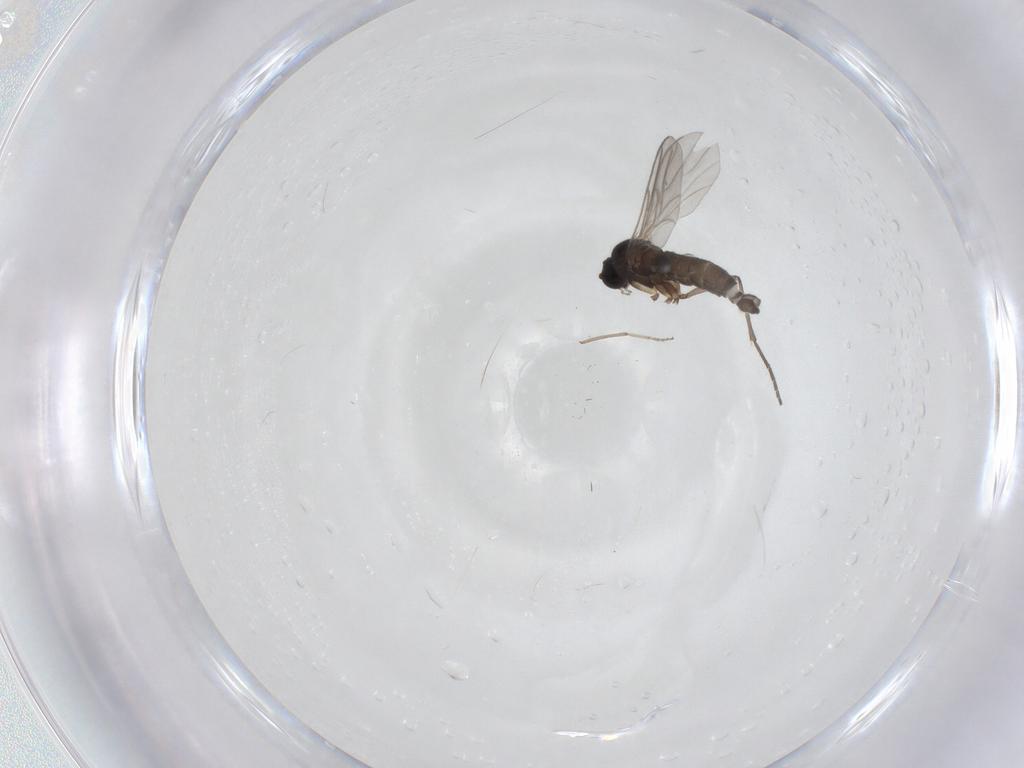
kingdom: Animalia
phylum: Arthropoda
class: Insecta
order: Diptera
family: Sciaridae
